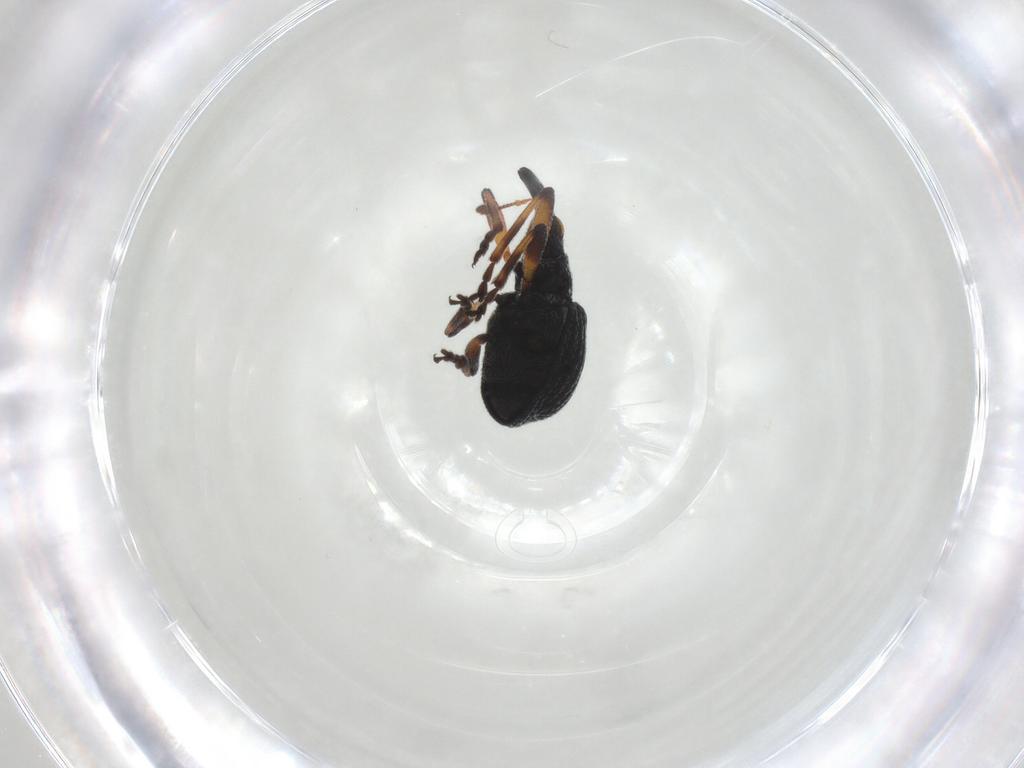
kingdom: Animalia
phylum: Arthropoda
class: Insecta
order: Coleoptera
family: Brentidae
